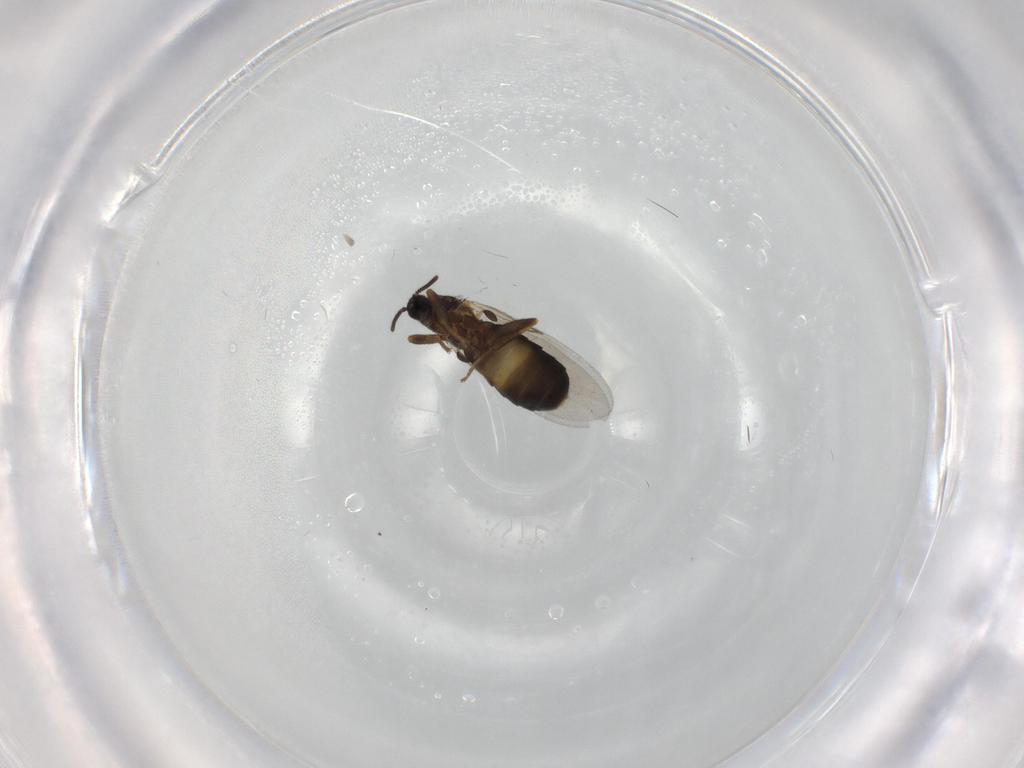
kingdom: Animalia
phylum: Arthropoda
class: Insecta
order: Diptera
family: Scatopsidae
